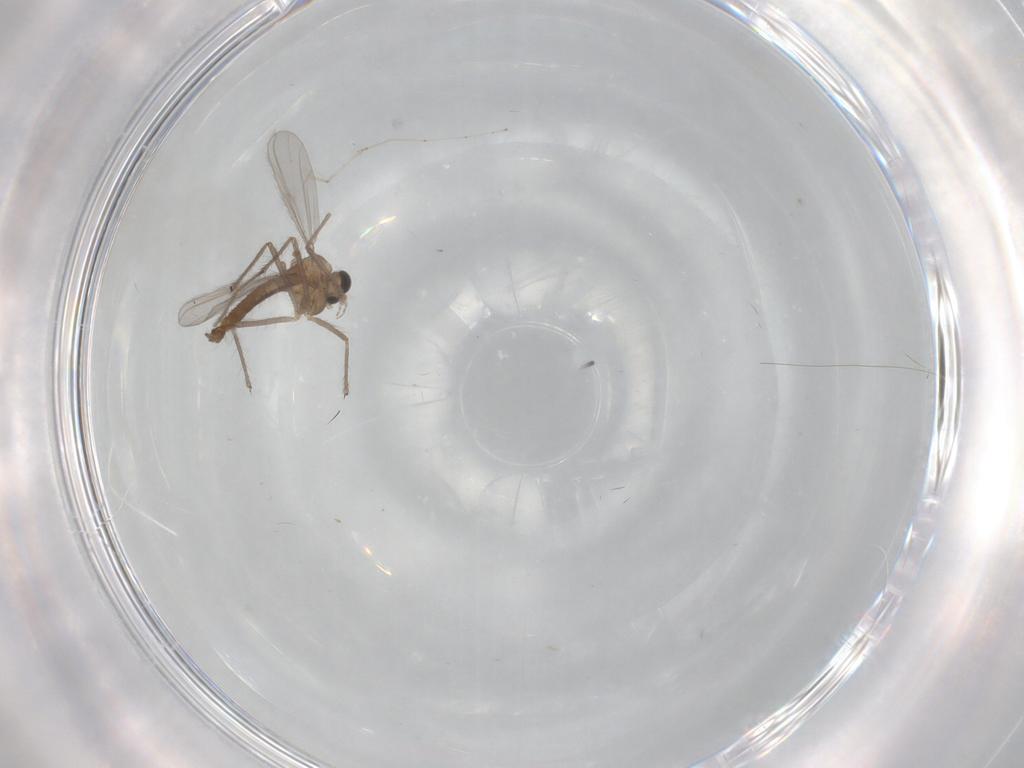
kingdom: Animalia
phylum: Arthropoda
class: Insecta
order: Diptera
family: Chironomidae
